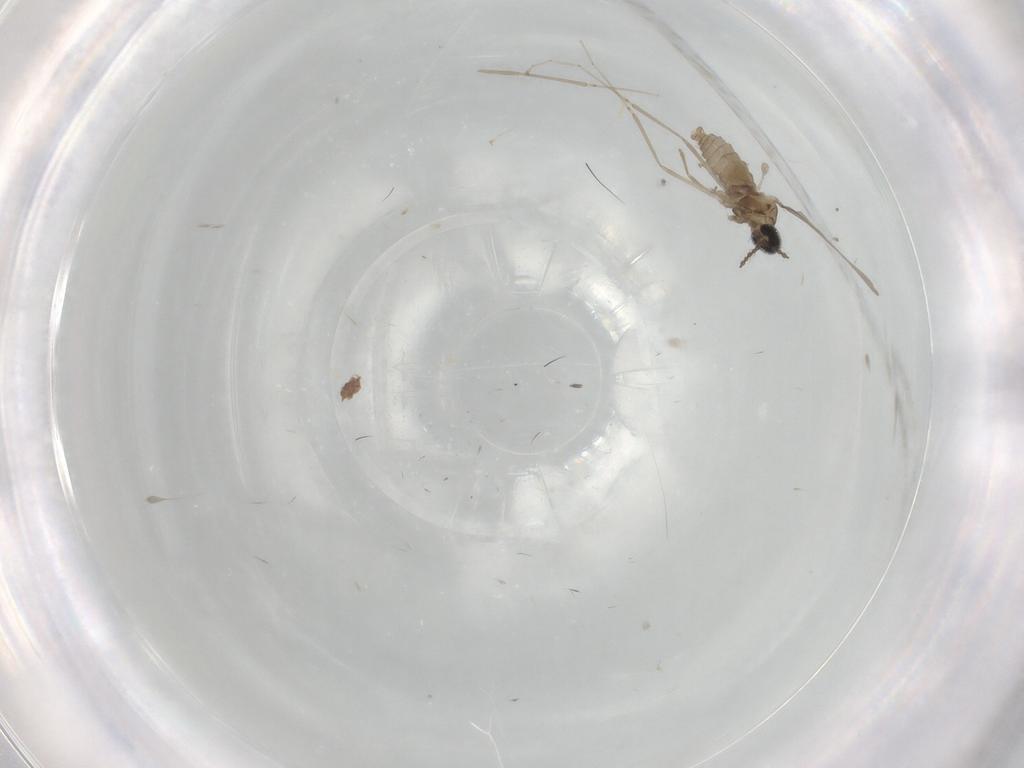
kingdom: Animalia
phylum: Arthropoda
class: Insecta
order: Diptera
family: Cecidomyiidae
